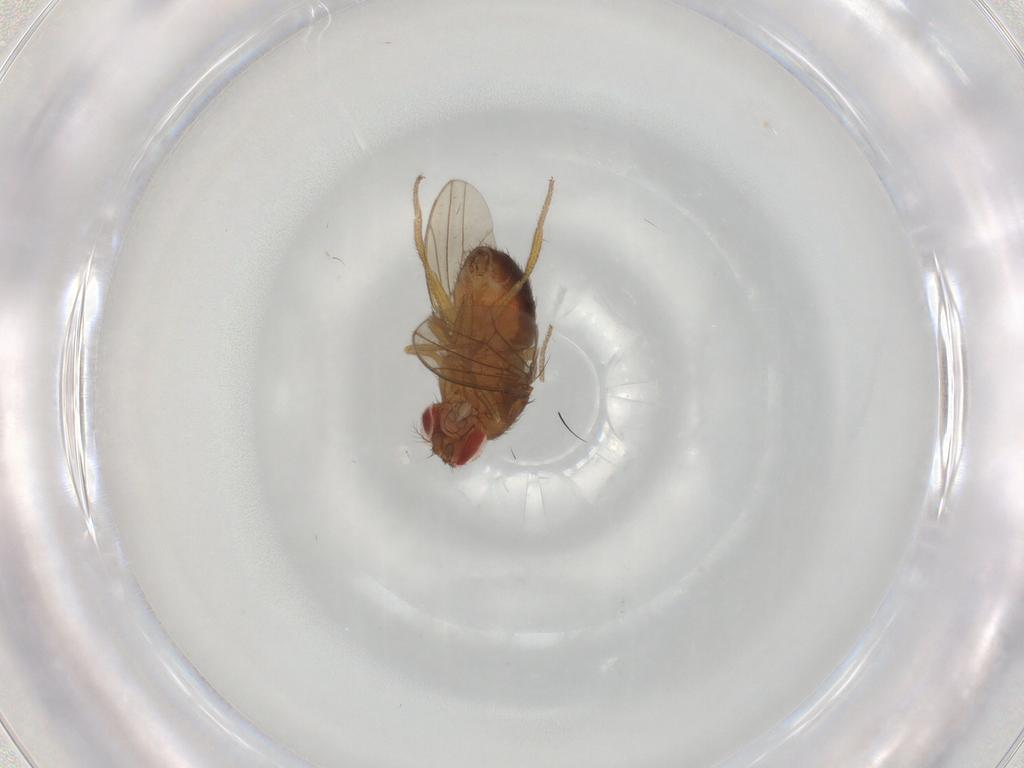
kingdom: Animalia
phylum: Arthropoda
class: Insecta
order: Diptera
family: Drosophilidae
